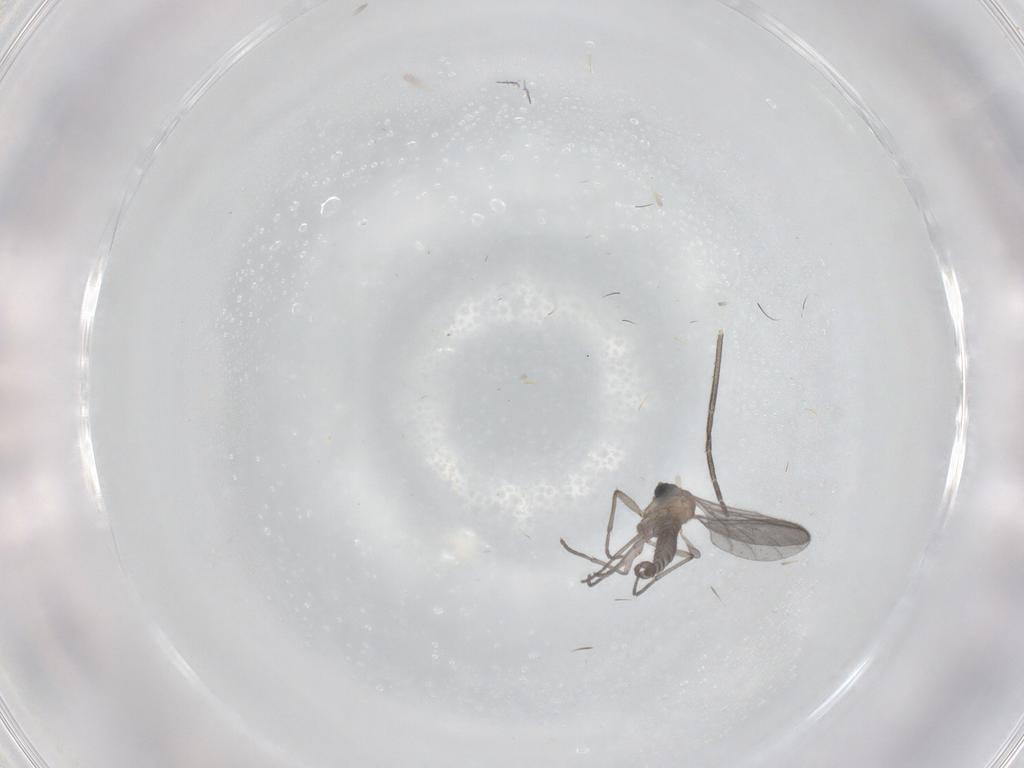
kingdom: Animalia
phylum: Arthropoda
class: Insecta
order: Diptera
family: Sciaridae
